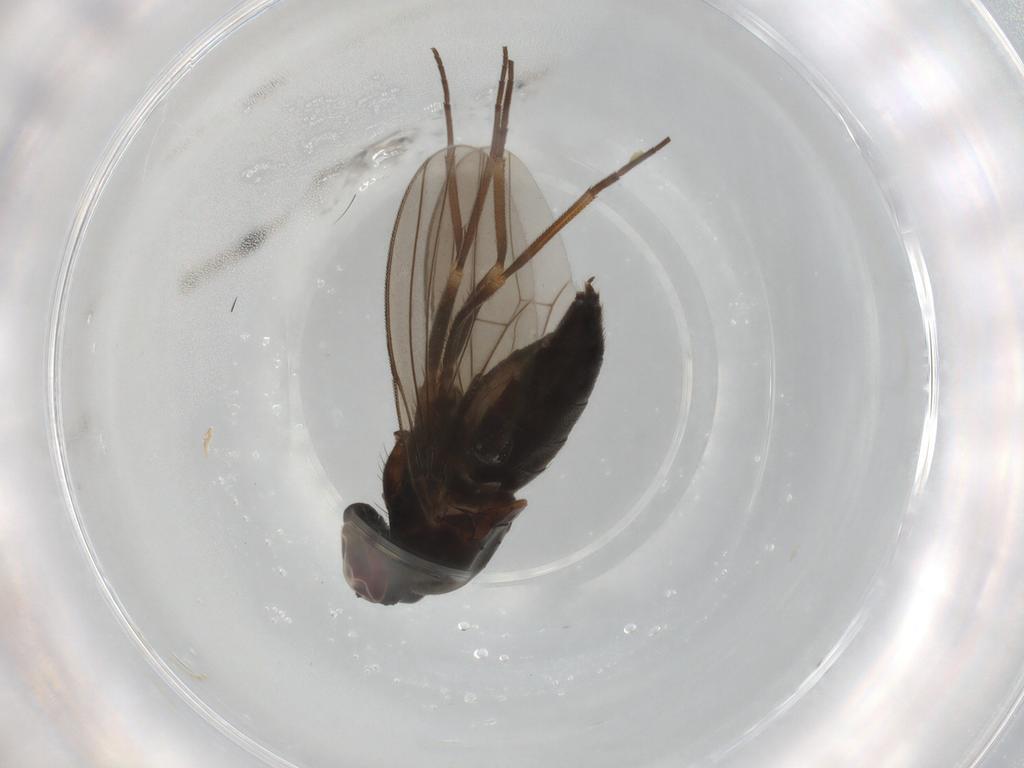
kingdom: Animalia
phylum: Arthropoda
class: Insecta
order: Diptera
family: Dolichopodidae
